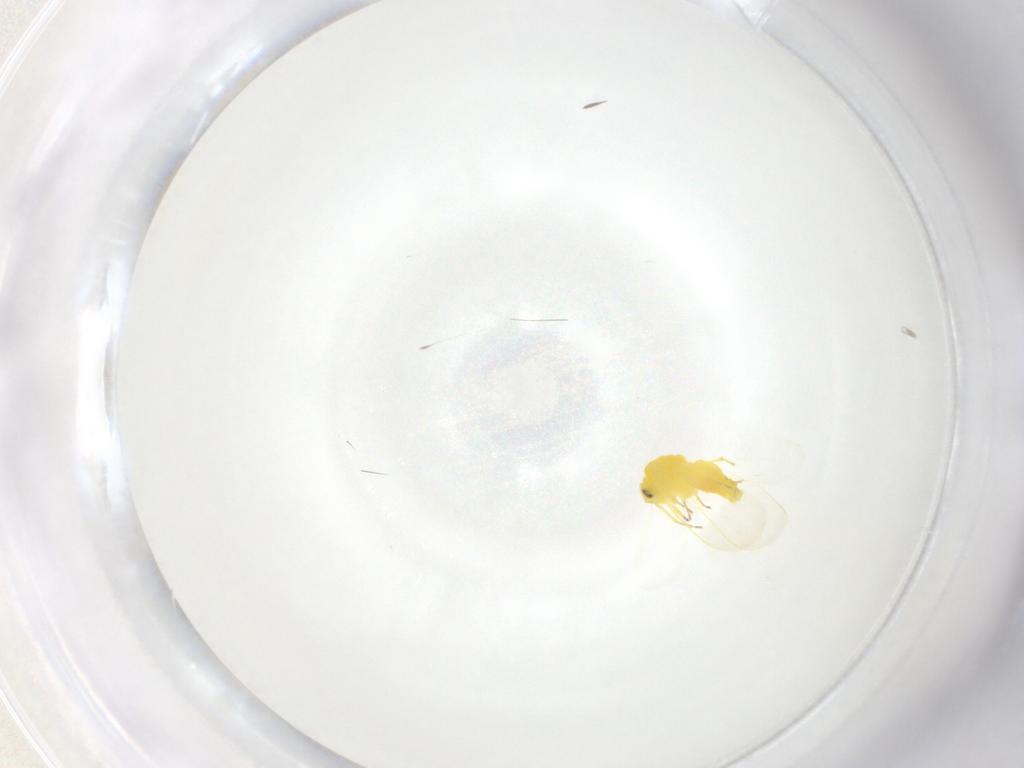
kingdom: Animalia
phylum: Arthropoda
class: Insecta
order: Hemiptera
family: Aleyrodidae
